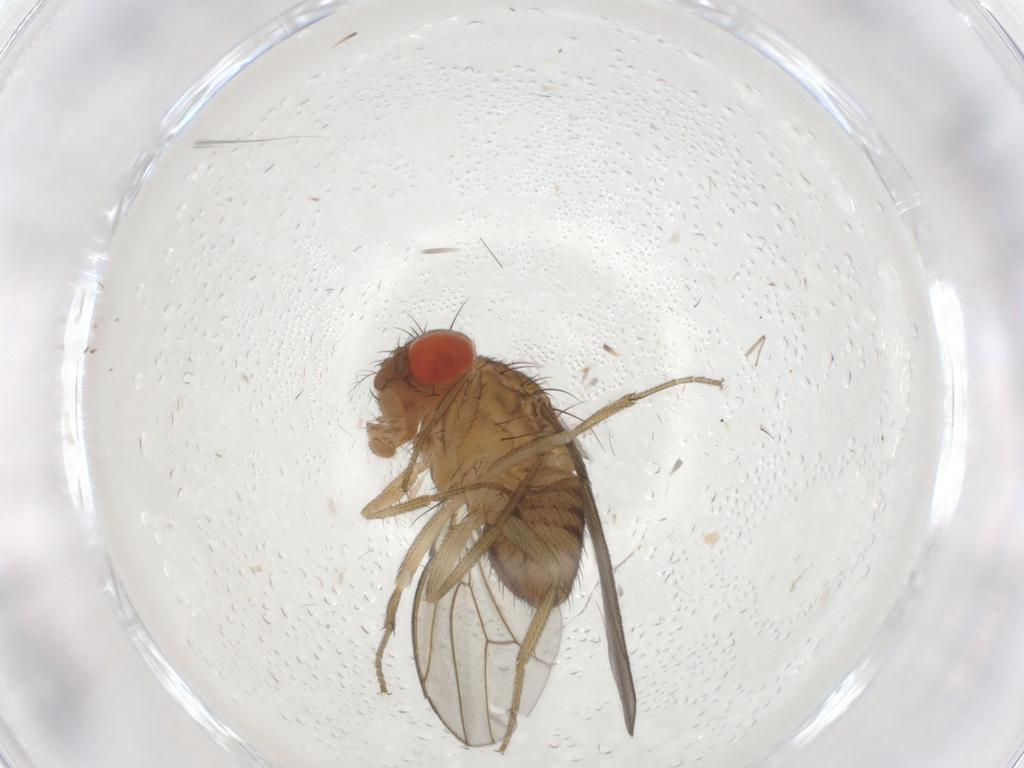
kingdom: Animalia
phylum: Arthropoda
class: Insecta
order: Diptera
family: Drosophilidae
